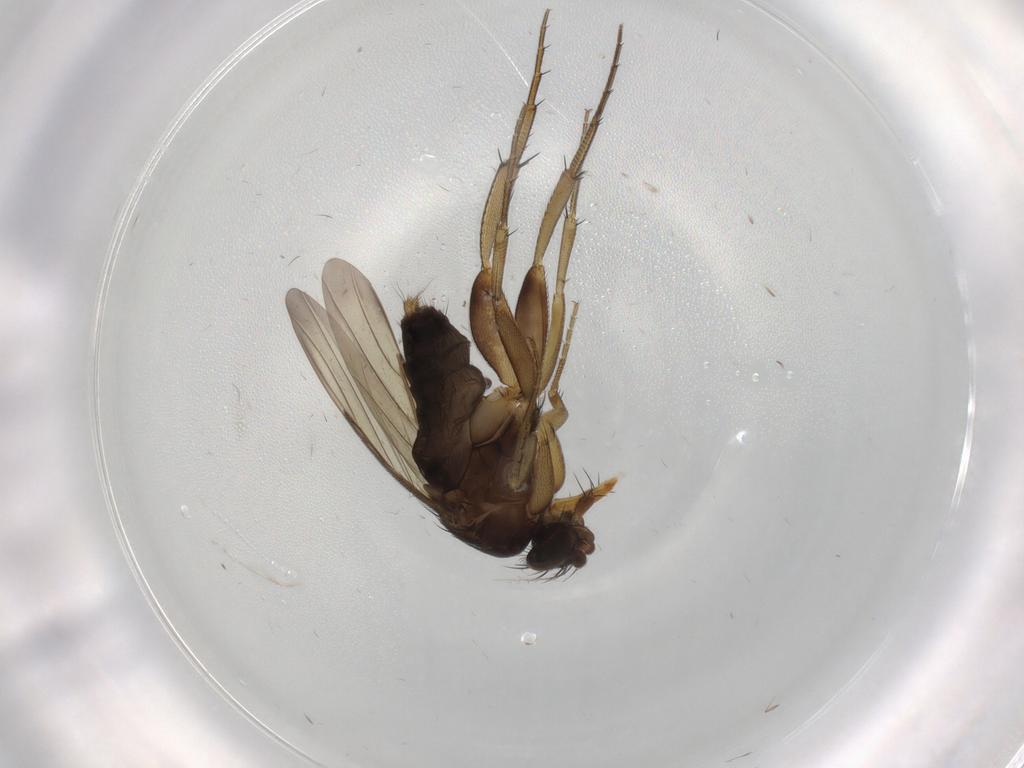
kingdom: Animalia
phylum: Arthropoda
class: Insecta
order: Diptera
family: Phoridae
